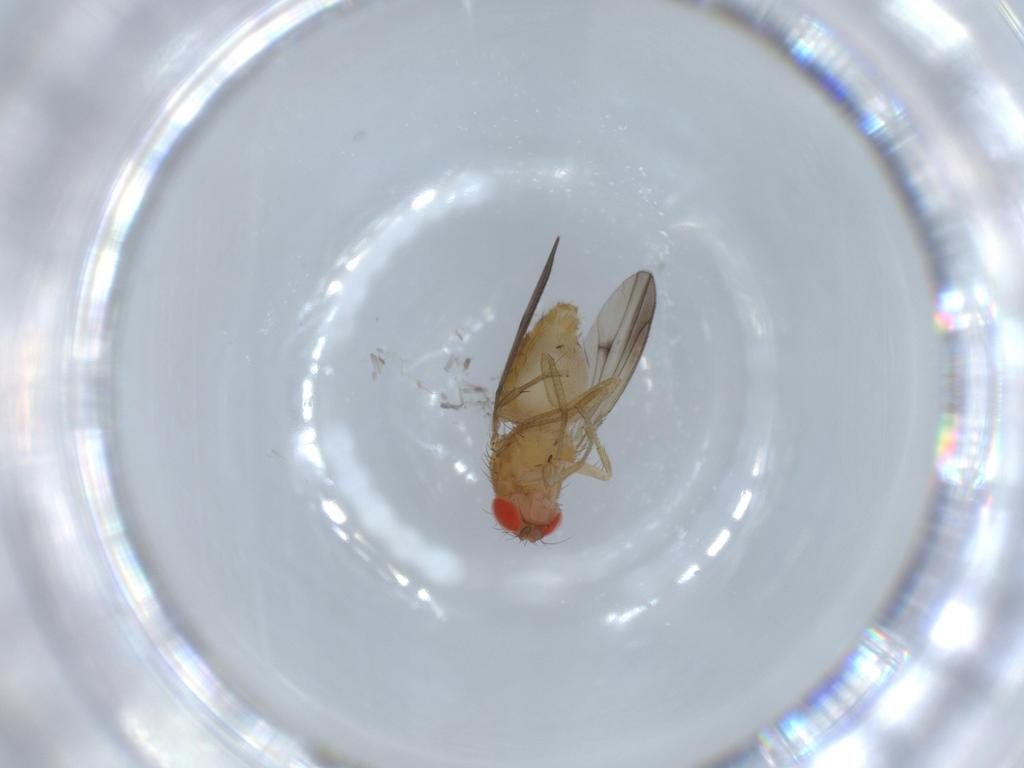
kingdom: Animalia
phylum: Arthropoda
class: Insecta
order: Diptera
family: Drosophilidae
